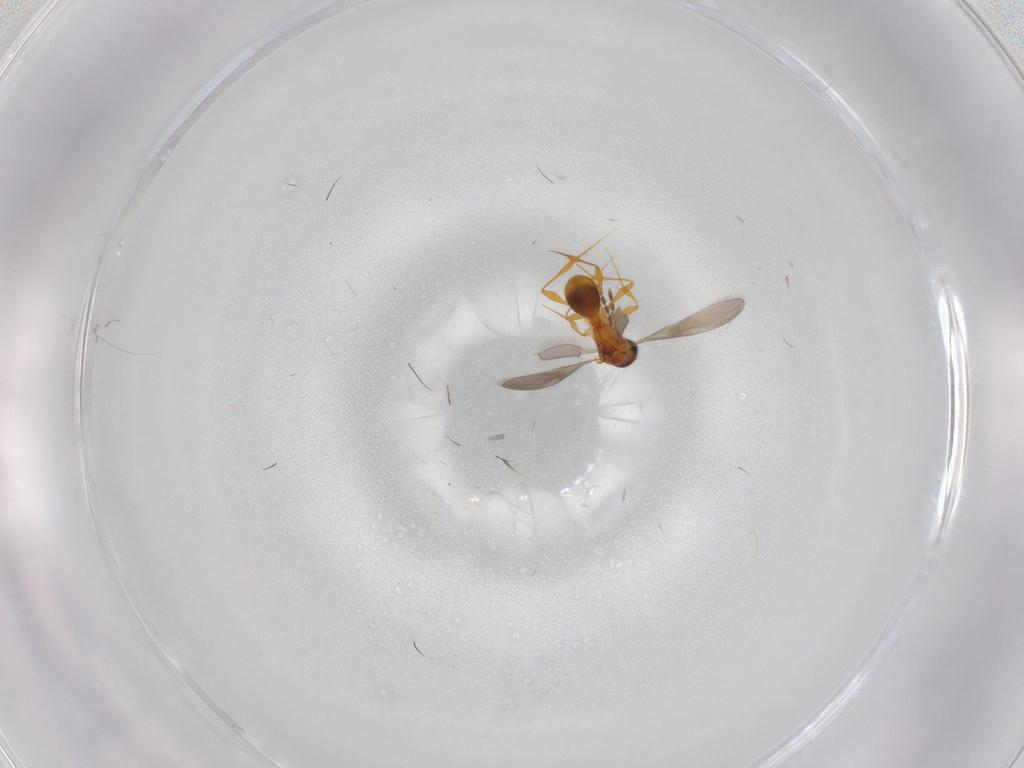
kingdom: Animalia
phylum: Arthropoda
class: Insecta
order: Hymenoptera
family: Platygastridae
